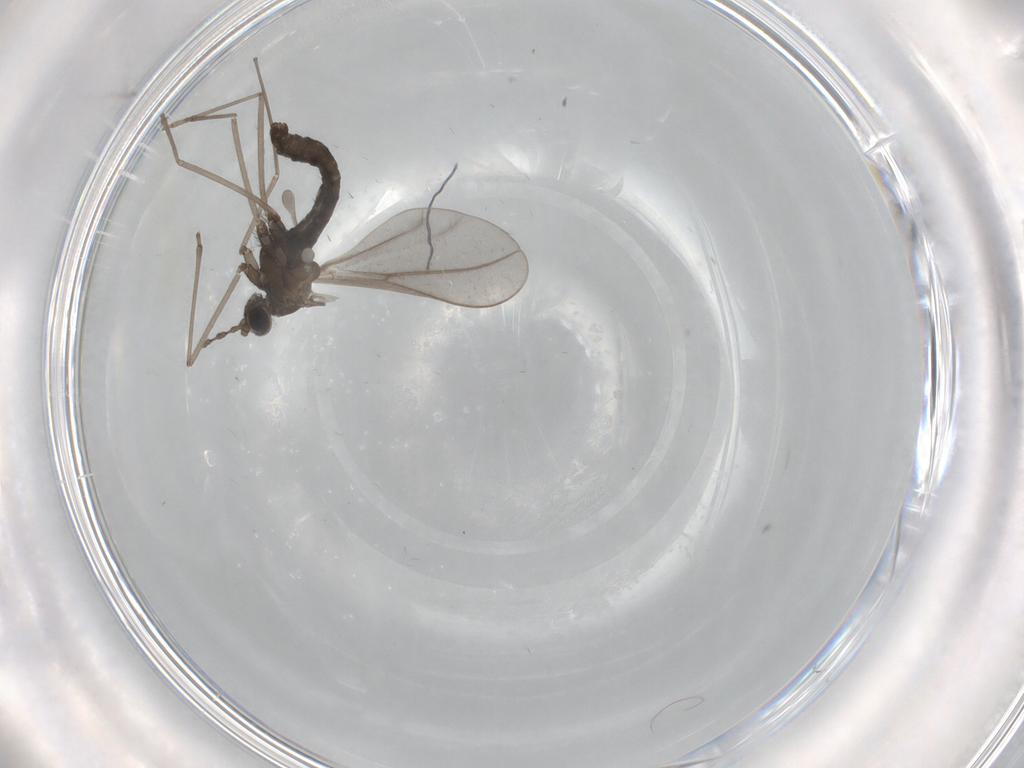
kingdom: Animalia
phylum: Arthropoda
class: Insecta
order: Diptera
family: Cecidomyiidae
